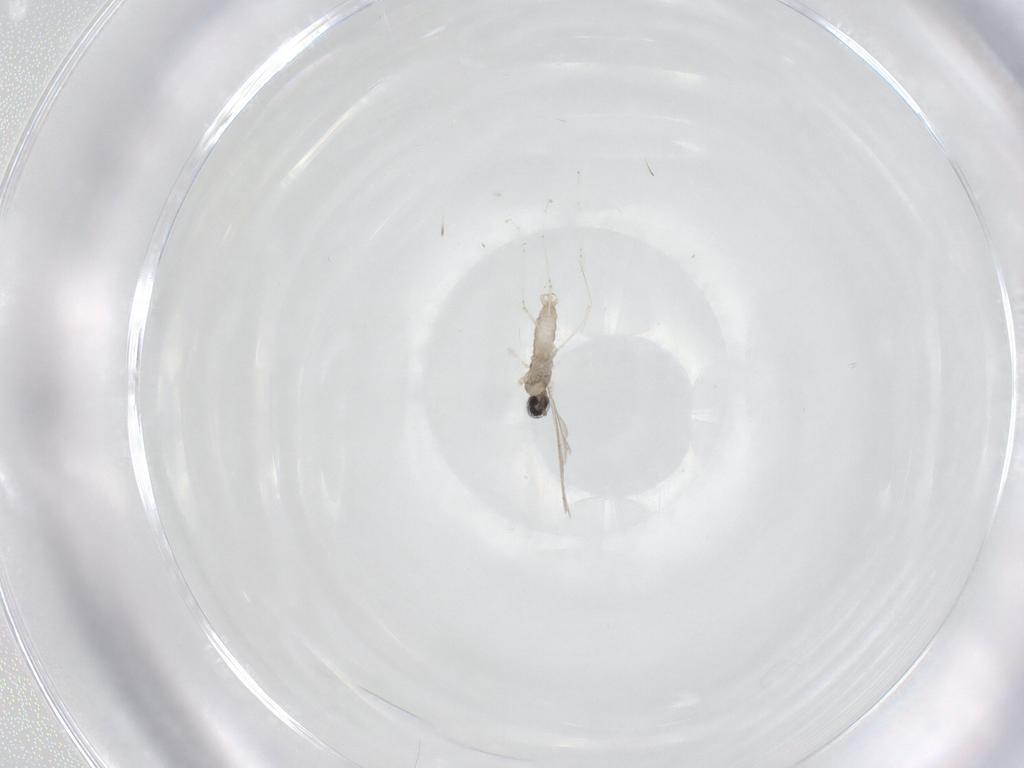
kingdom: Animalia
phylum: Arthropoda
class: Insecta
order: Diptera
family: Cecidomyiidae
